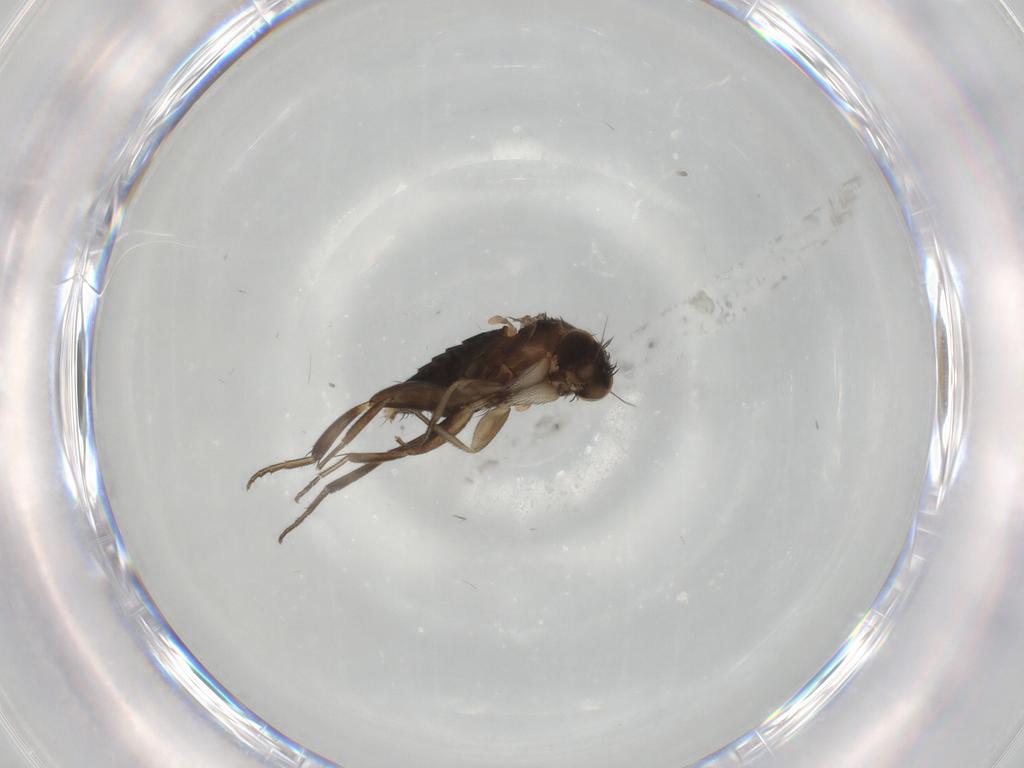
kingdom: Animalia
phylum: Arthropoda
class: Insecta
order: Diptera
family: Phoridae
